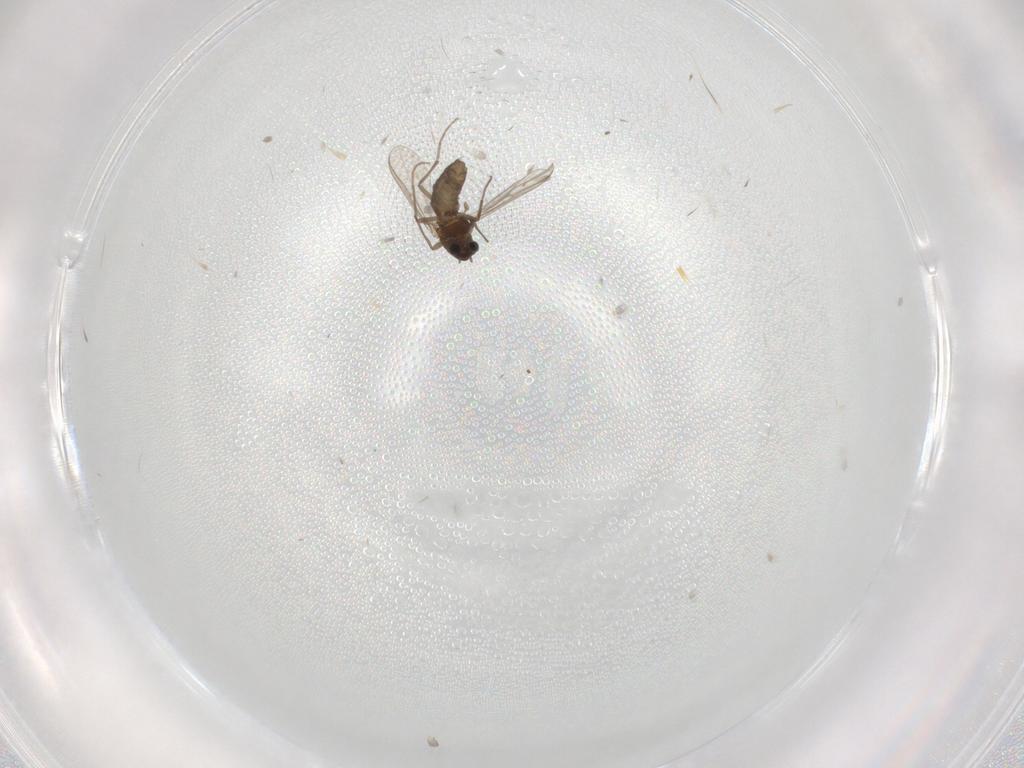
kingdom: Animalia
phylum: Arthropoda
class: Insecta
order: Diptera
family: Chironomidae
